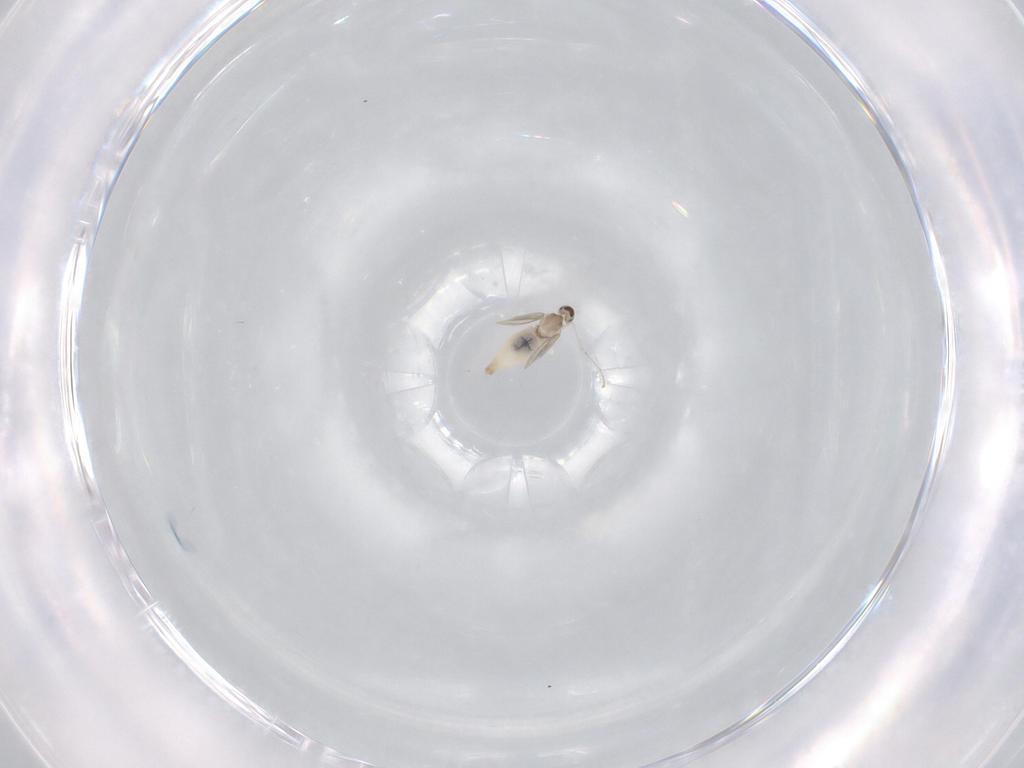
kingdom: Animalia
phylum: Arthropoda
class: Insecta
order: Diptera
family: Cecidomyiidae
